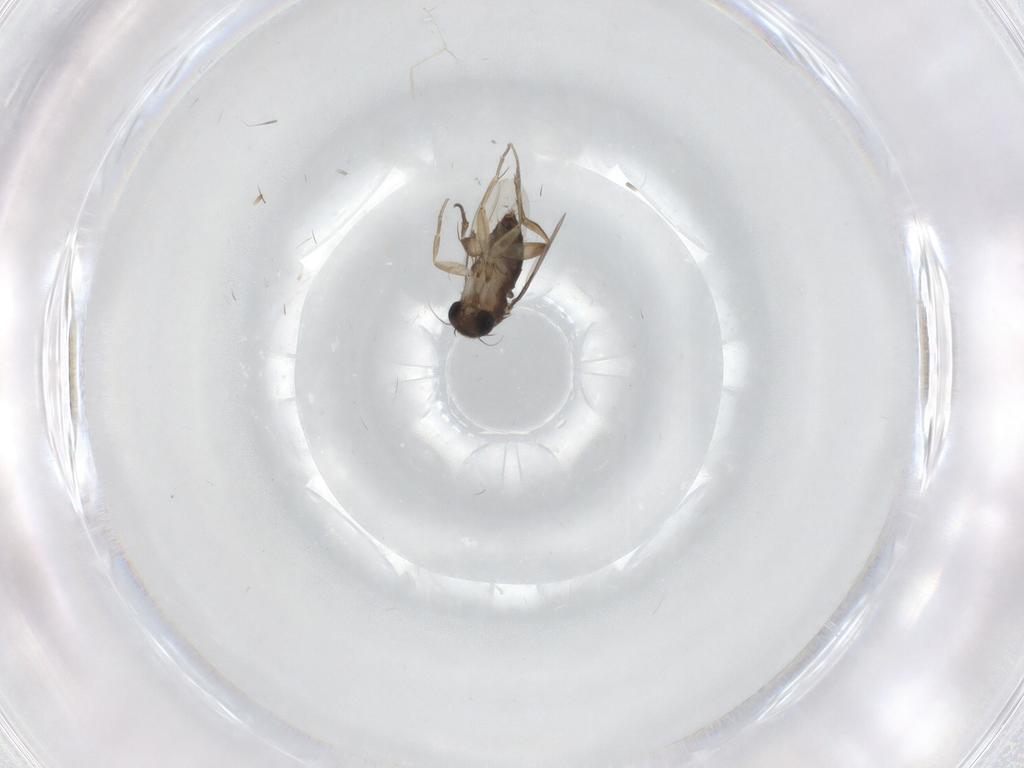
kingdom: Animalia
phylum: Arthropoda
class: Insecta
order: Diptera
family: Phoridae
